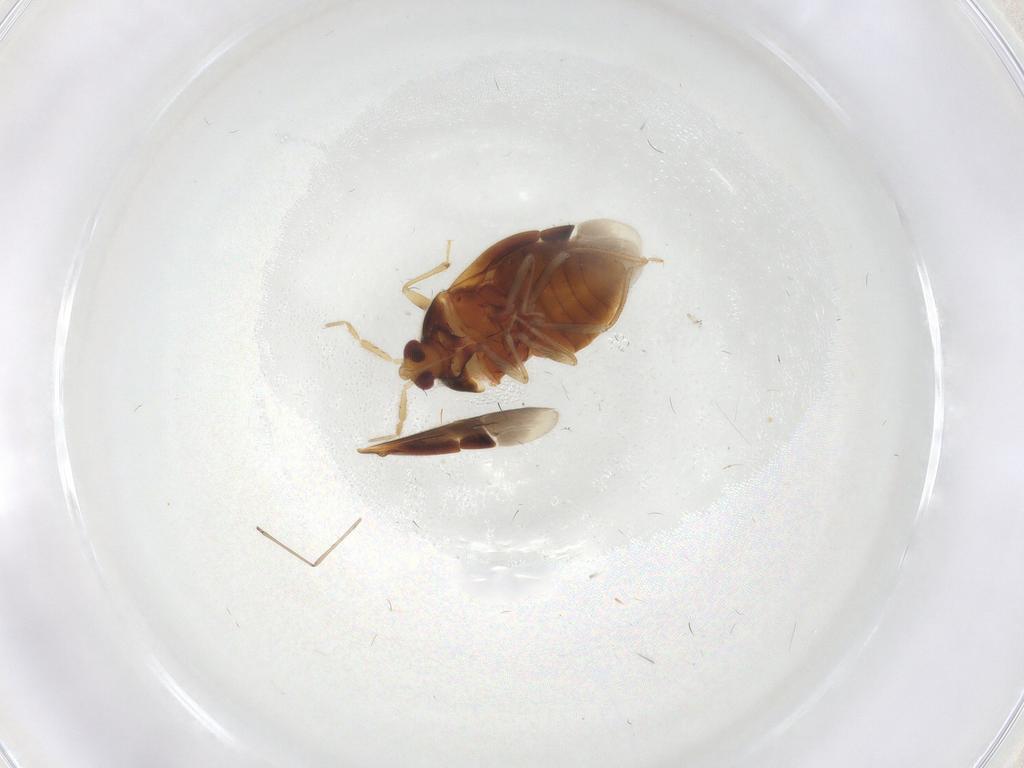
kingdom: Animalia
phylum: Arthropoda
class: Insecta
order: Hemiptera
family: Anthocoridae
